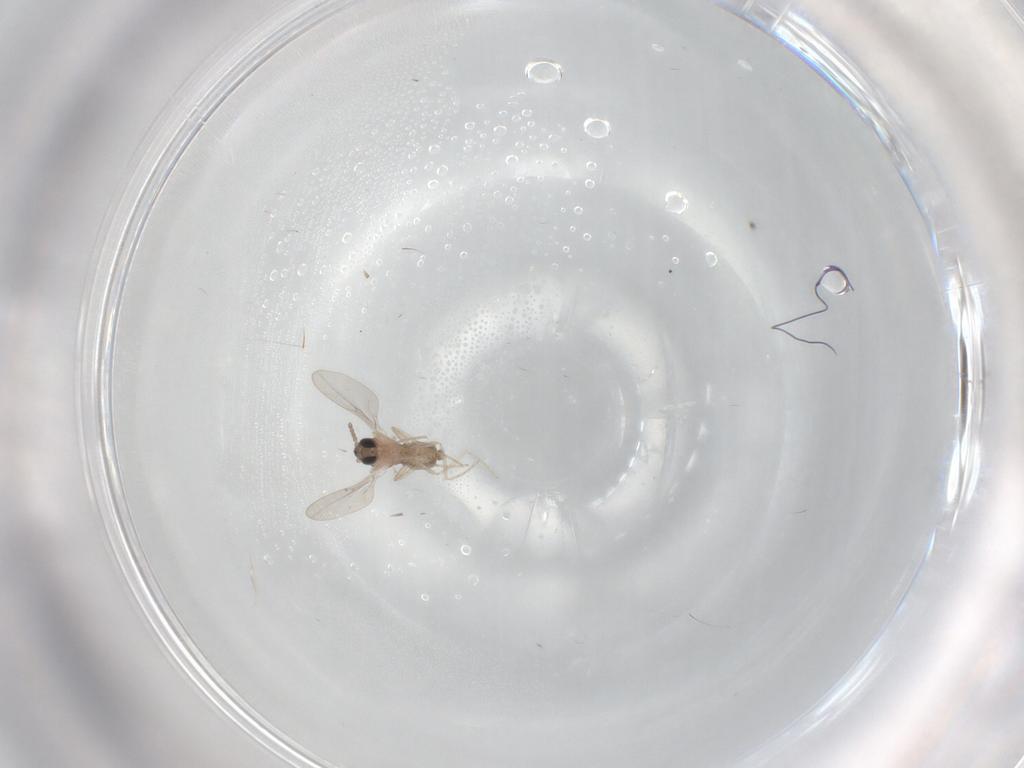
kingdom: Animalia
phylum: Arthropoda
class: Insecta
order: Diptera
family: Cecidomyiidae
